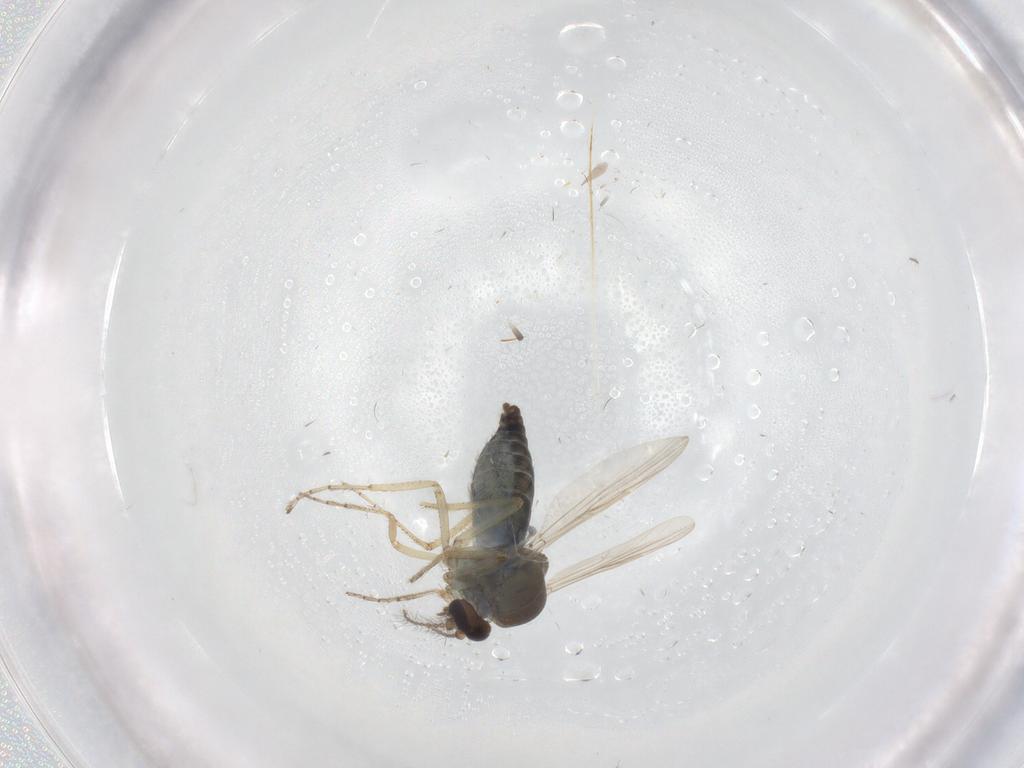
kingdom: Animalia
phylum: Arthropoda
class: Insecta
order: Diptera
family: Ceratopogonidae
